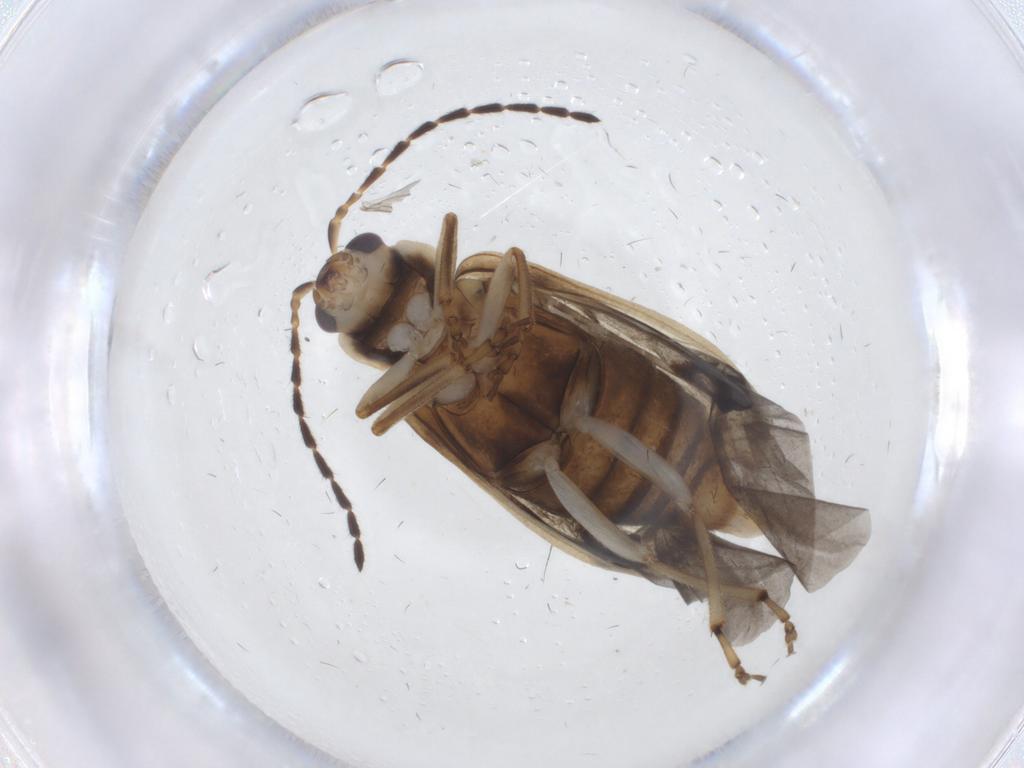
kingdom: Animalia
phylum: Arthropoda
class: Insecta
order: Coleoptera
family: Chrysomelidae
